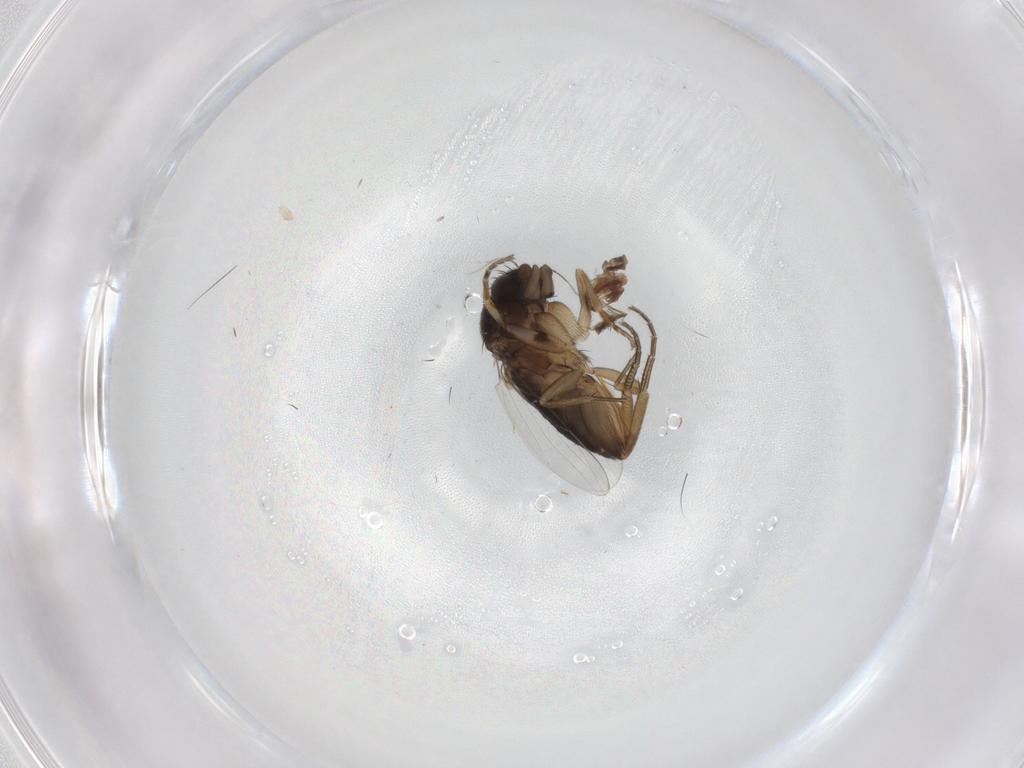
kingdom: Animalia
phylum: Arthropoda
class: Insecta
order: Diptera
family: Phoridae
